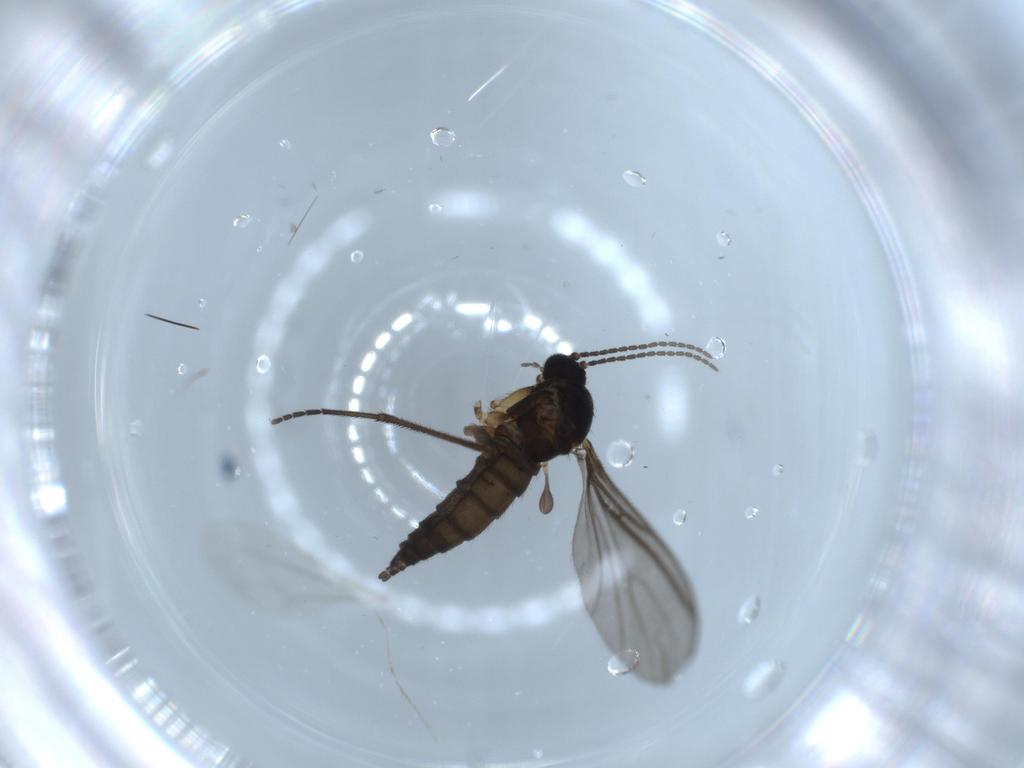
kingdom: Animalia
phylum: Arthropoda
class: Insecta
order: Diptera
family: Sciaridae
